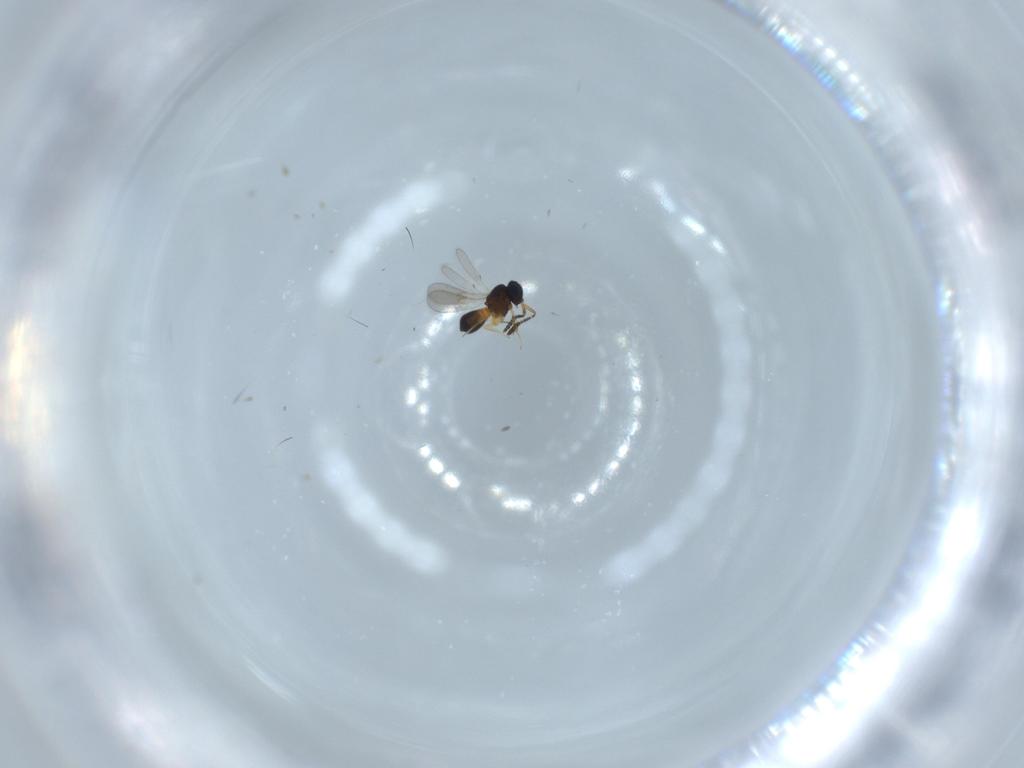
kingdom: Animalia
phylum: Arthropoda
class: Insecta
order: Hymenoptera
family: Scelionidae
